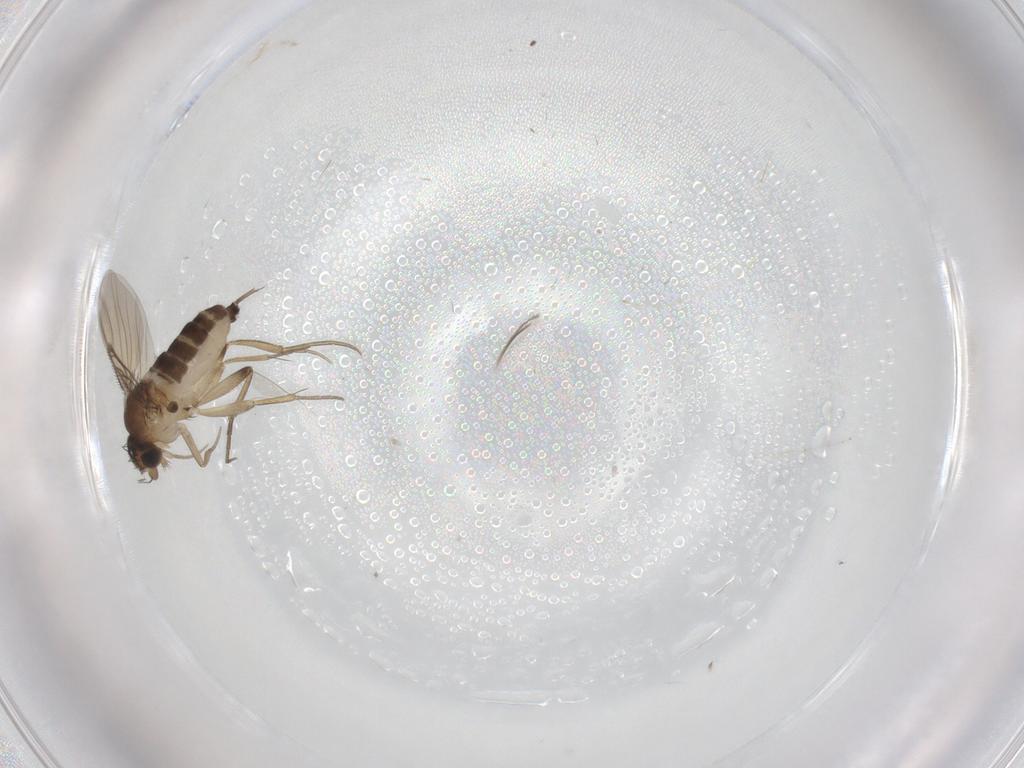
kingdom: Animalia
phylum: Arthropoda
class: Insecta
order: Diptera
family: Phoridae
